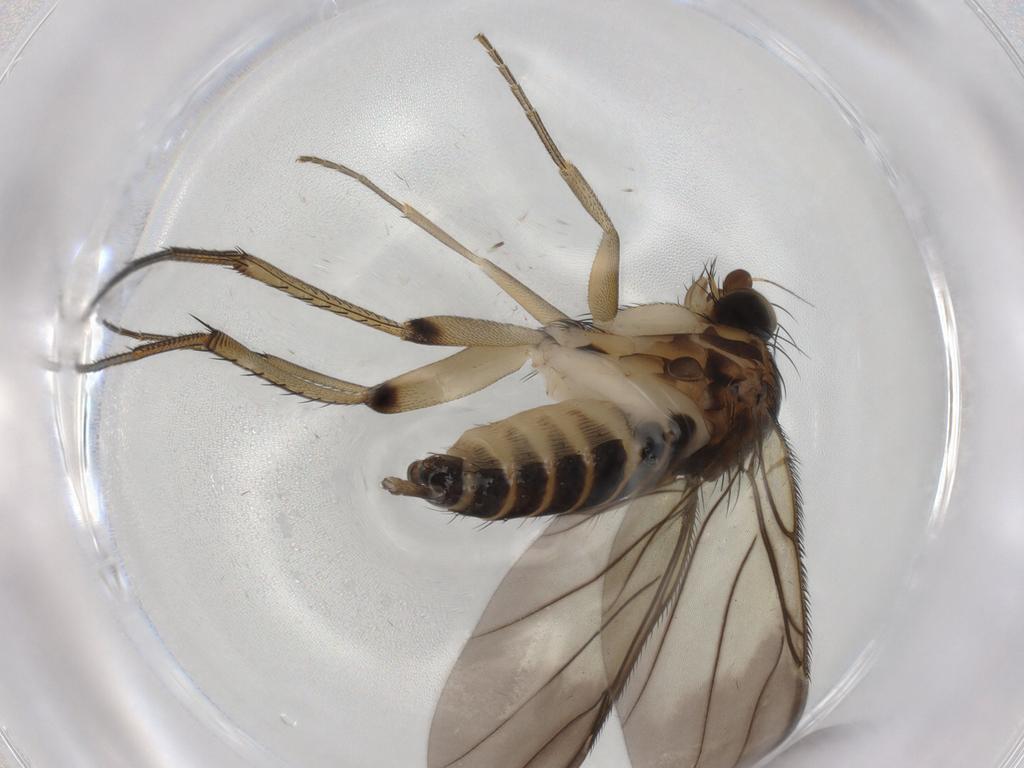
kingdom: Animalia
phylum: Arthropoda
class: Insecta
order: Diptera
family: Phoridae
